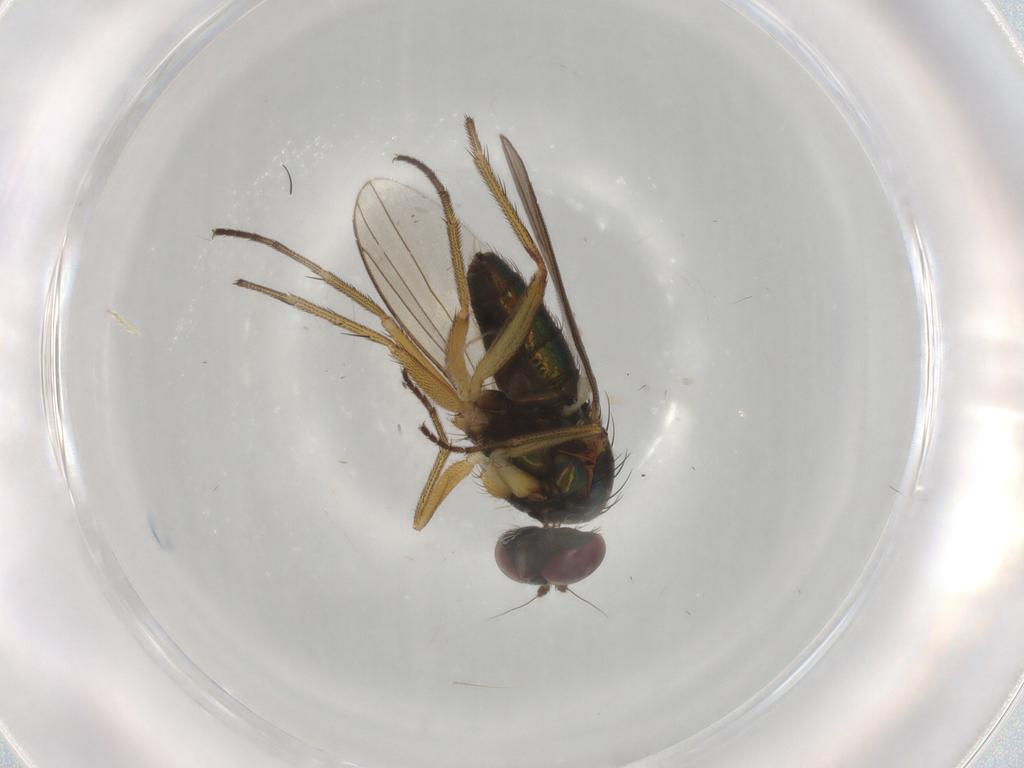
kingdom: Animalia
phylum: Arthropoda
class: Insecta
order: Diptera
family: Dolichopodidae
